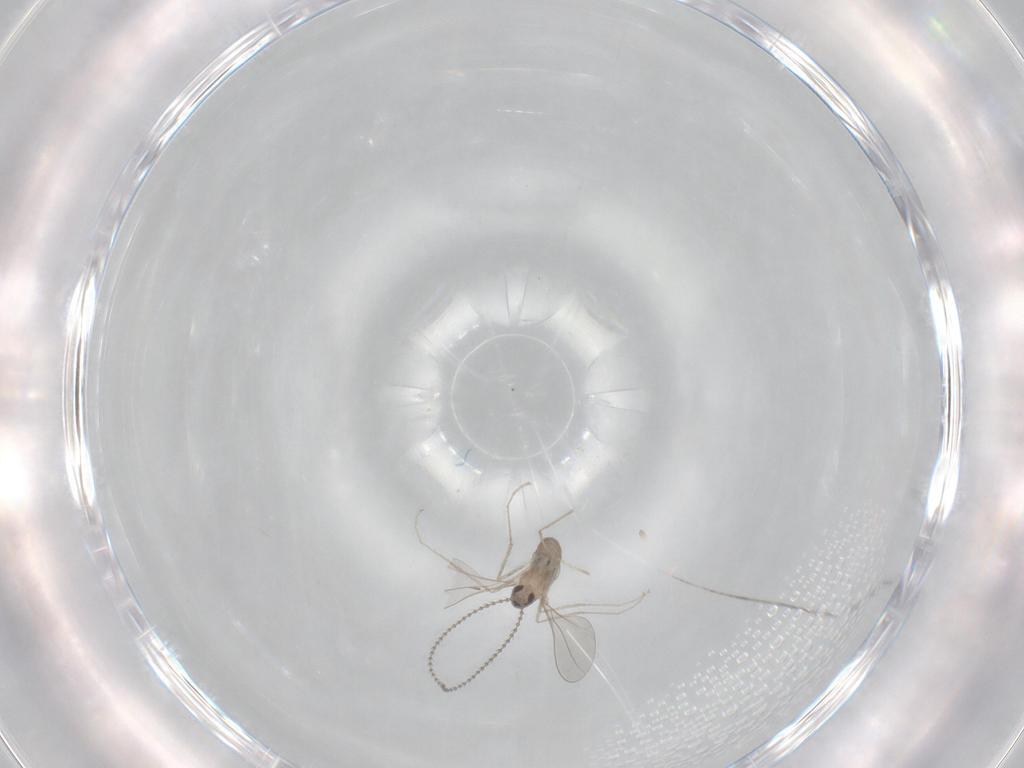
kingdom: Animalia
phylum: Arthropoda
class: Insecta
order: Diptera
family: Cecidomyiidae
